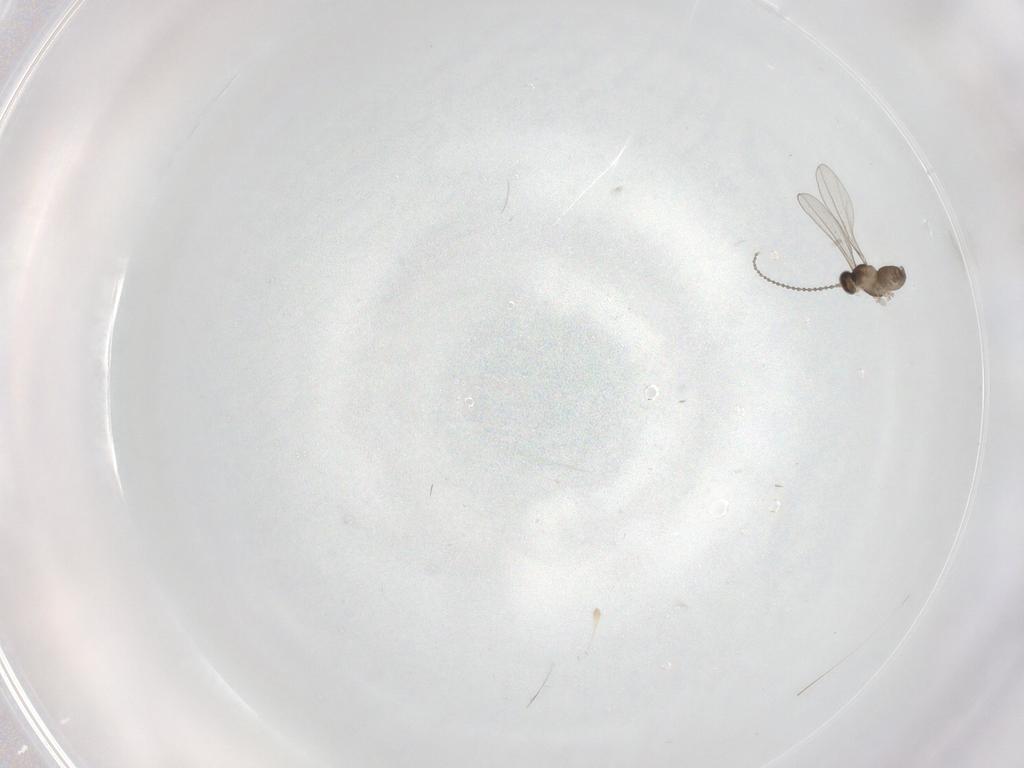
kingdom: Animalia
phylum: Arthropoda
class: Insecta
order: Diptera
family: Cecidomyiidae
